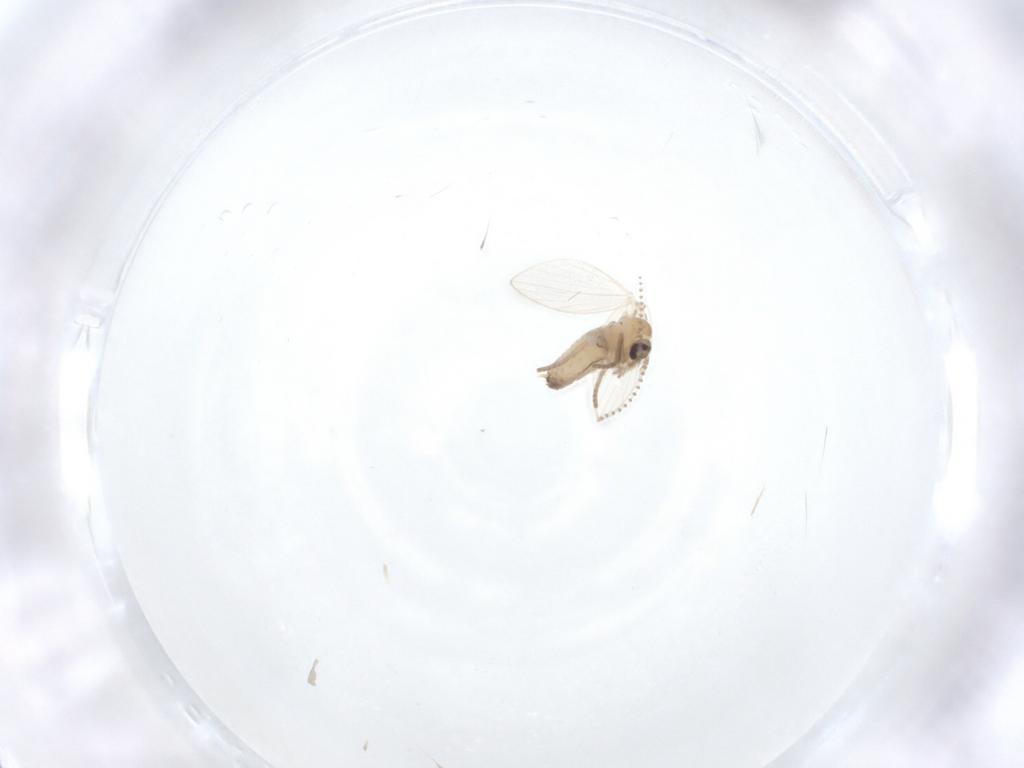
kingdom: Animalia
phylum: Arthropoda
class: Insecta
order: Diptera
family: Psychodidae
